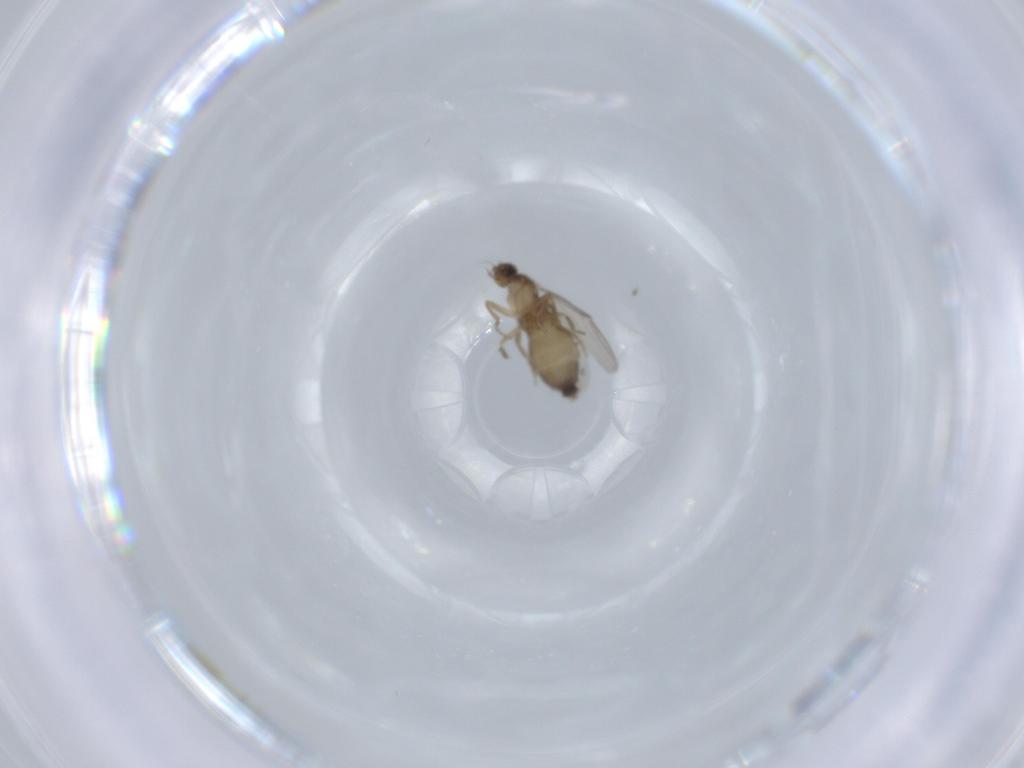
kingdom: Animalia
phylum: Arthropoda
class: Insecta
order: Diptera
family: Phoridae
